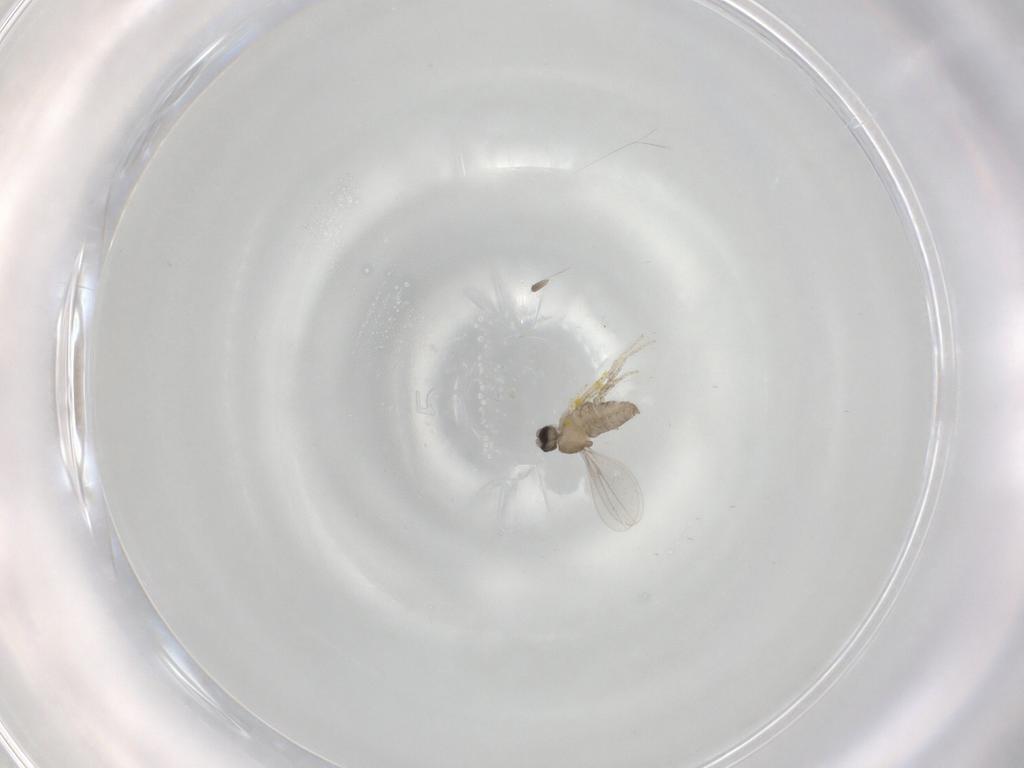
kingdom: Animalia
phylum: Arthropoda
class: Insecta
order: Diptera
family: Cecidomyiidae
